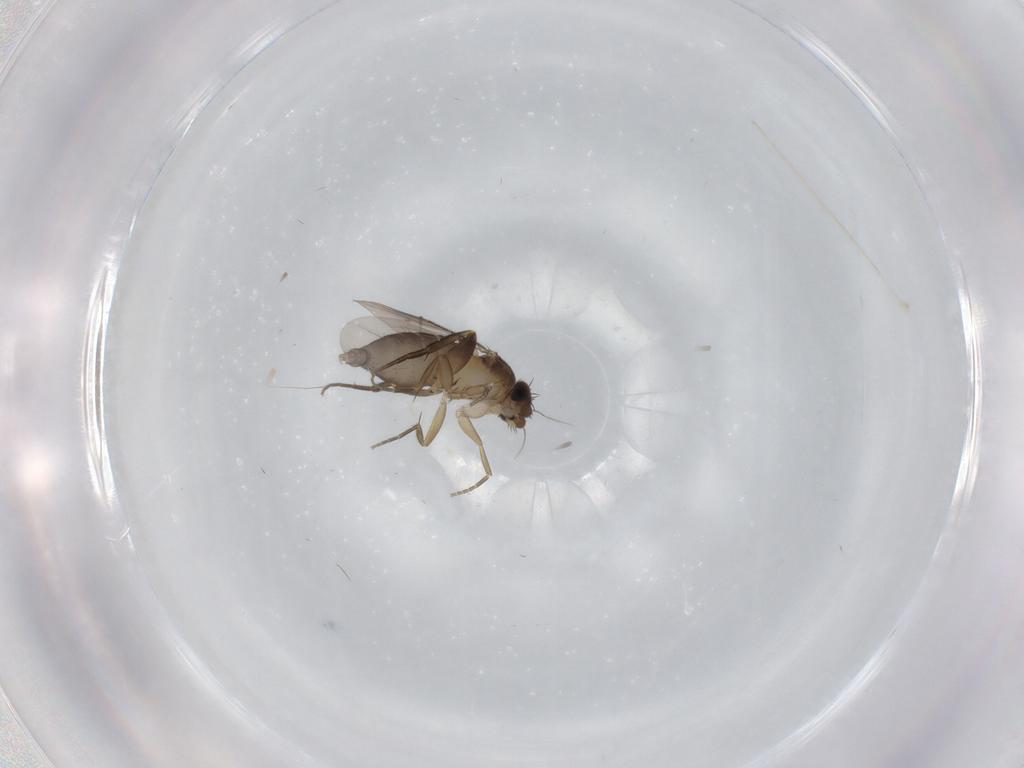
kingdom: Animalia
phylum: Arthropoda
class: Insecta
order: Diptera
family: Phoridae
